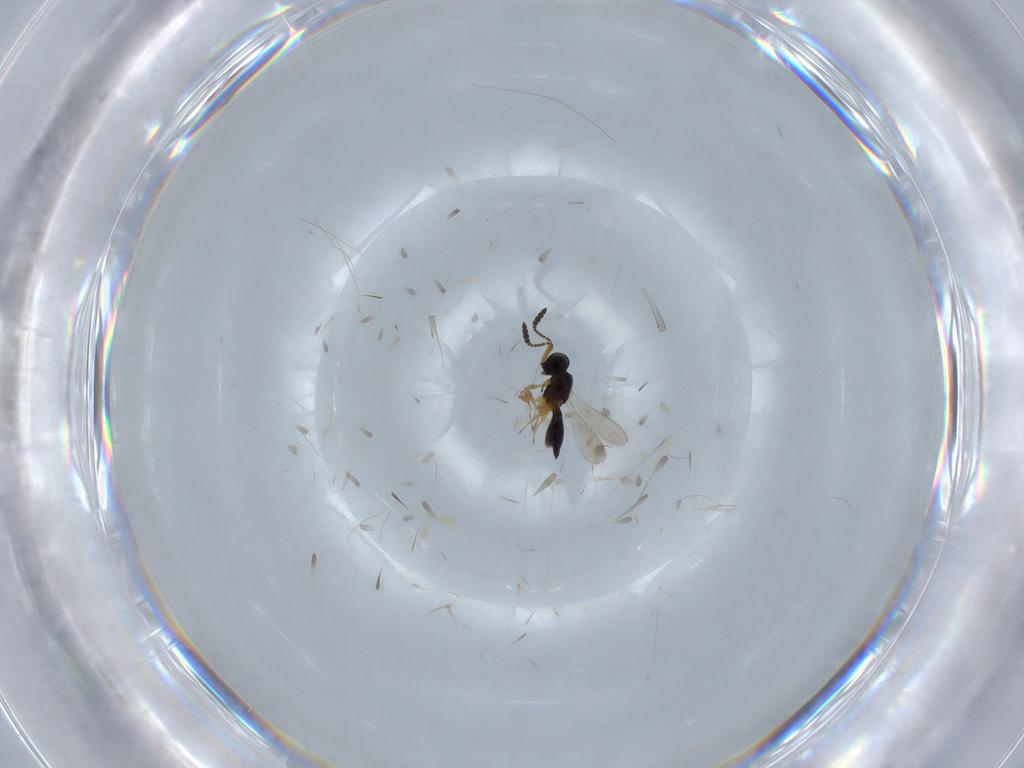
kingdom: Animalia
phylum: Arthropoda
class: Insecta
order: Hymenoptera
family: Scelionidae
